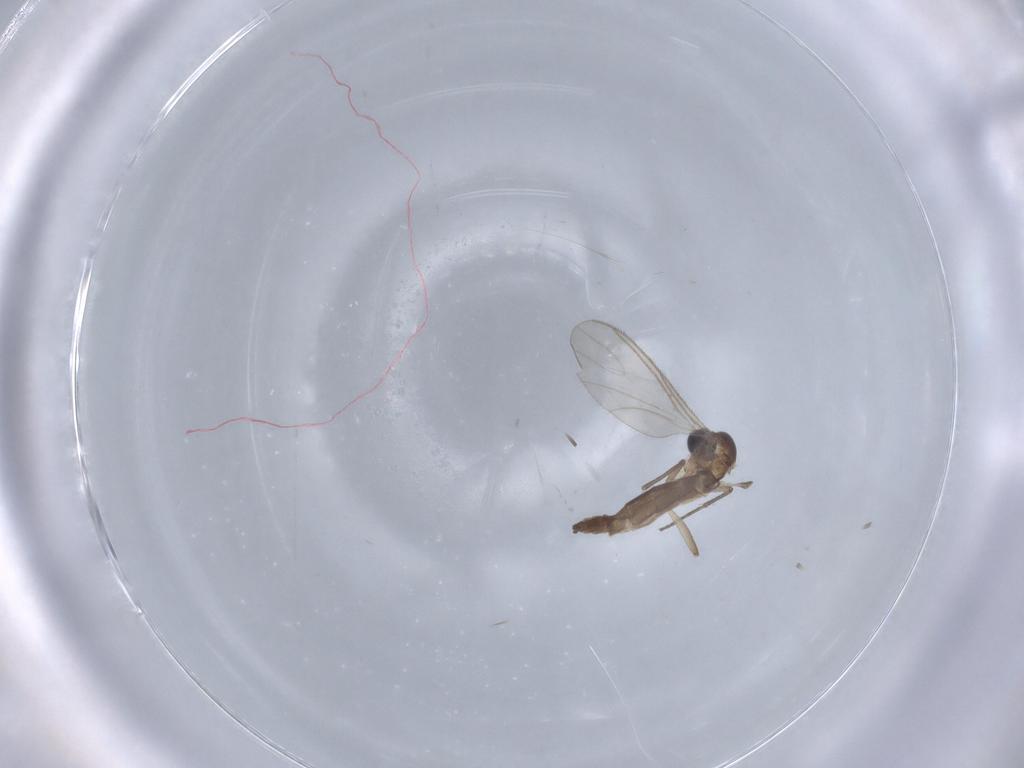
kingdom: Animalia
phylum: Arthropoda
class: Insecta
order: Diptera
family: Sciaridae
